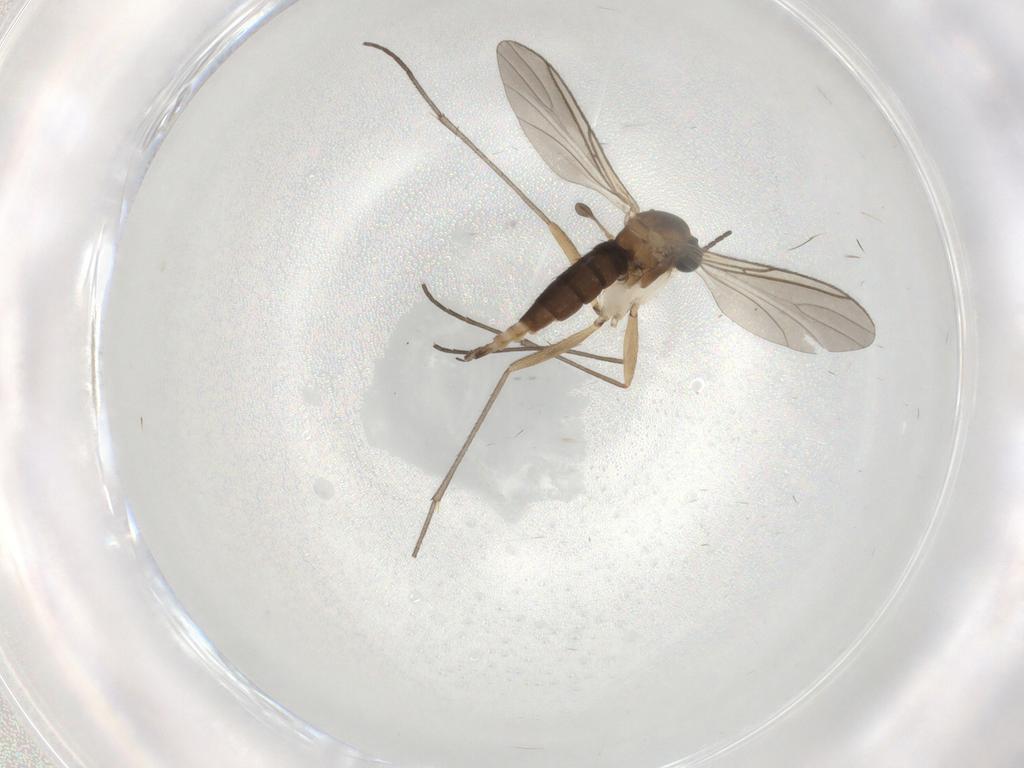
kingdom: Animalia
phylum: Arthropoda
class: Insecta
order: Diptera
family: Sciaridae
